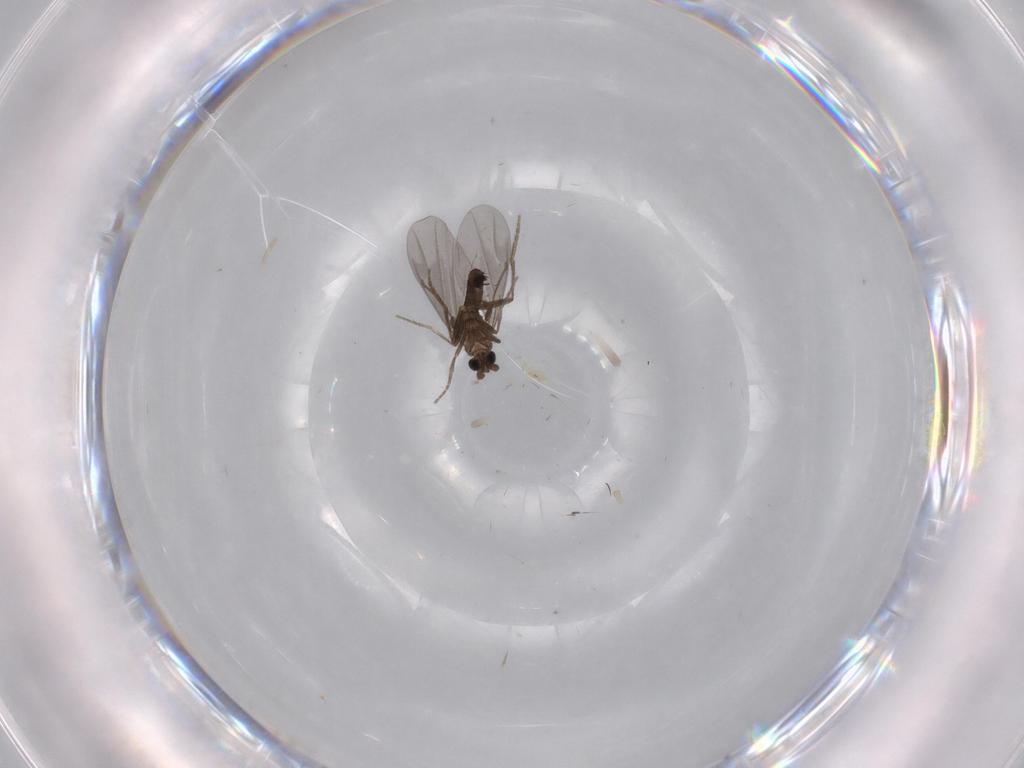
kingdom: Animalia
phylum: Arthropoda
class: Insecta
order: Diptera
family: Phoridae
